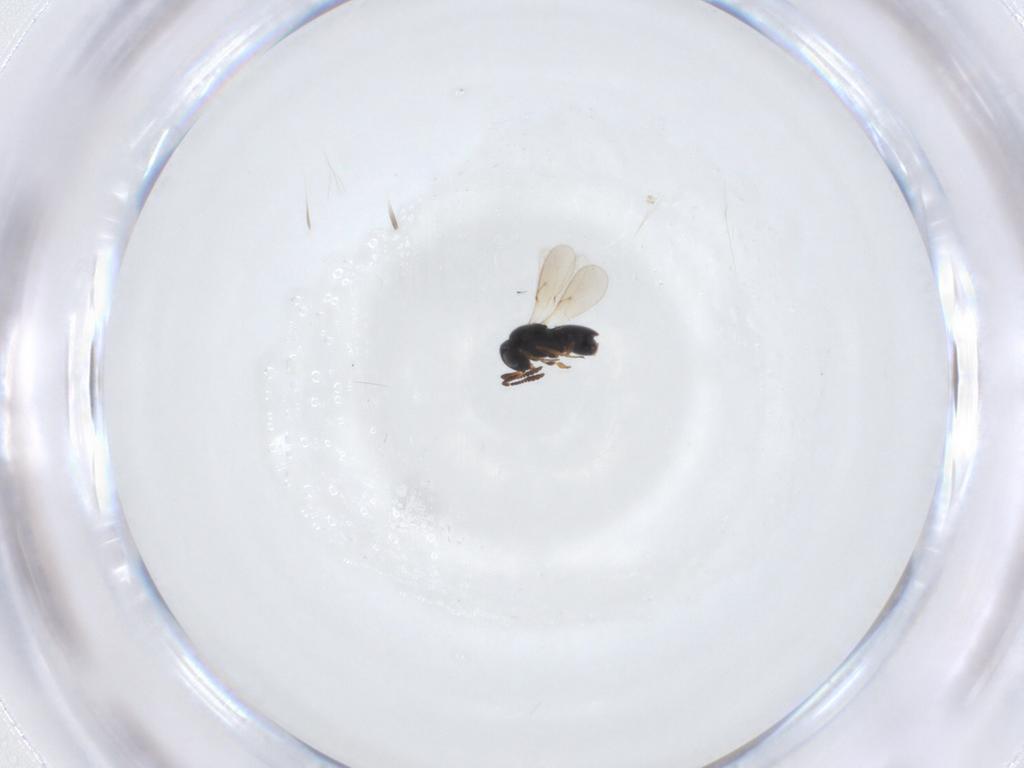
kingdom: Animalia
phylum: Arthropoda
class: Insecta
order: Hymenoptera
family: Scelionidae
